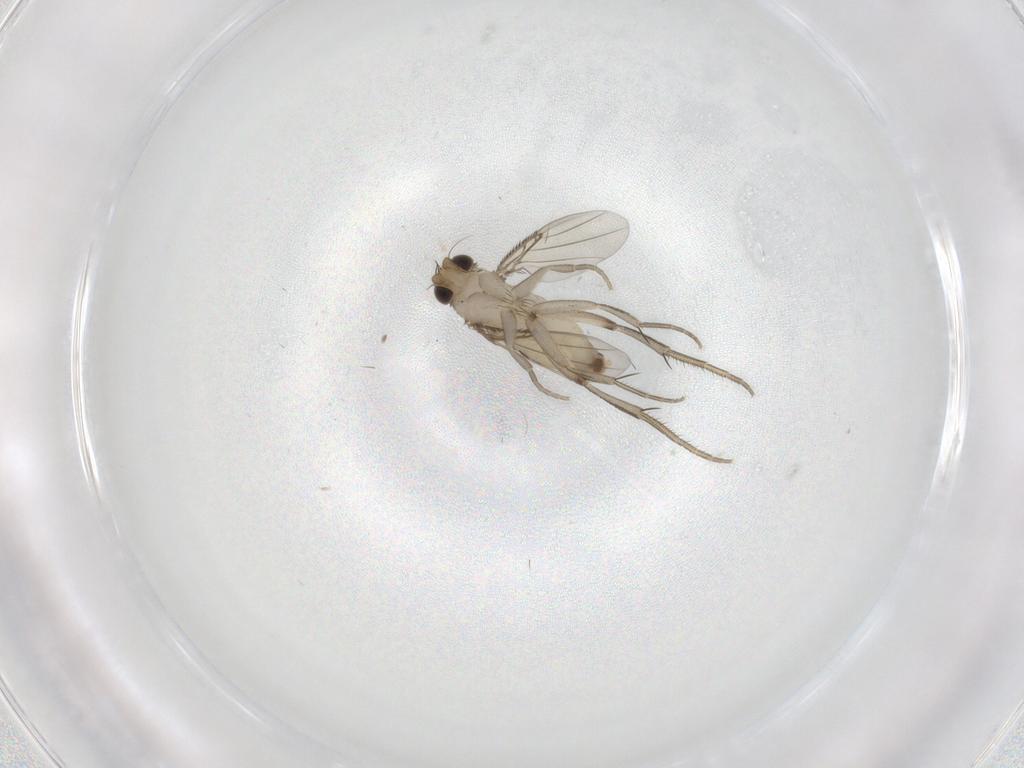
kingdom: Animalia
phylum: Arthropoda
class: Insecta
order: Diptera
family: Phoridae
